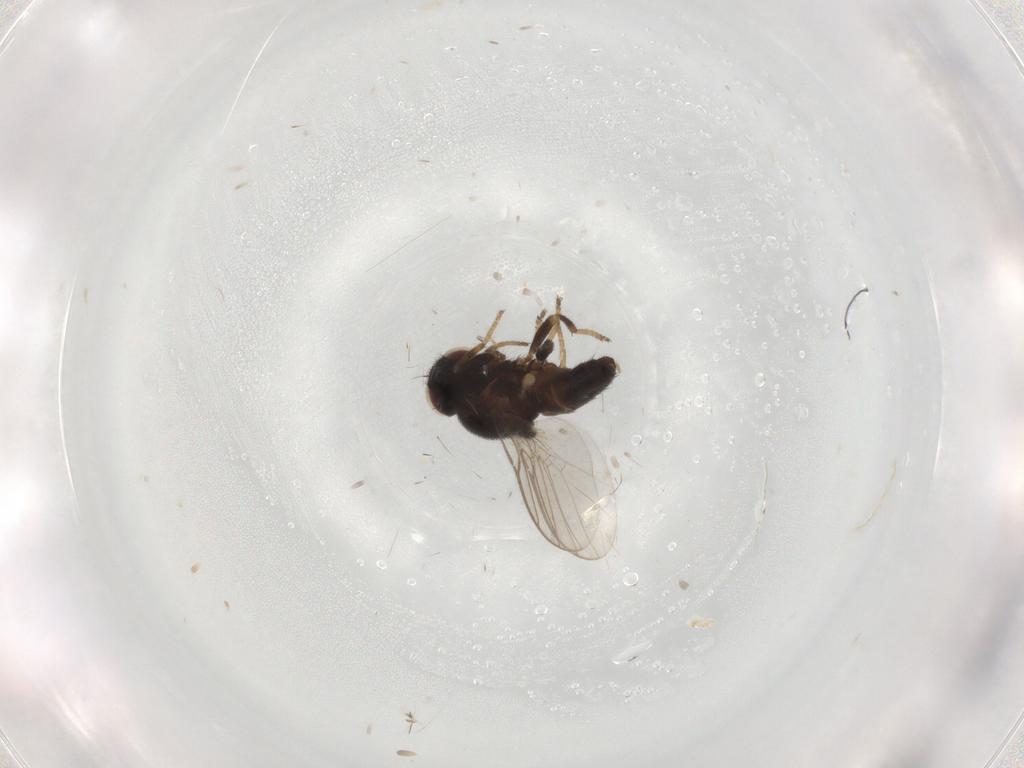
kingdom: Animalia
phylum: Arthropoda
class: Insecta
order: Diptera
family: Chloropidae
